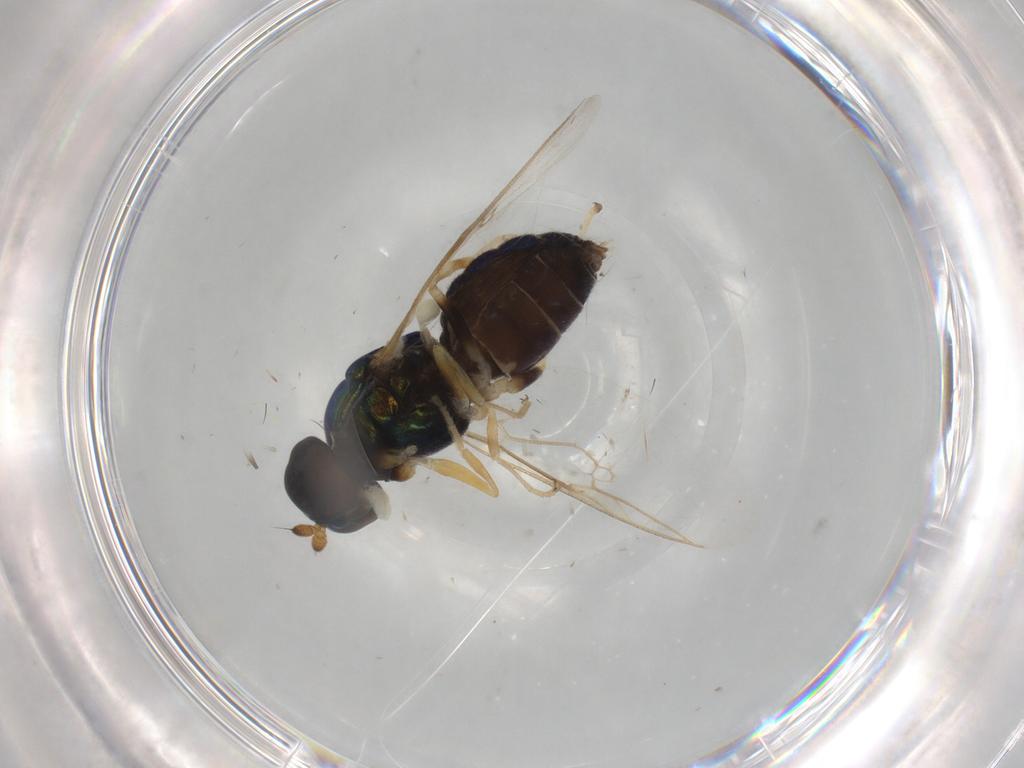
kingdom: Animalia
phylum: Arthropoda
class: Insecta
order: Diptera
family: Stratiomyidae
